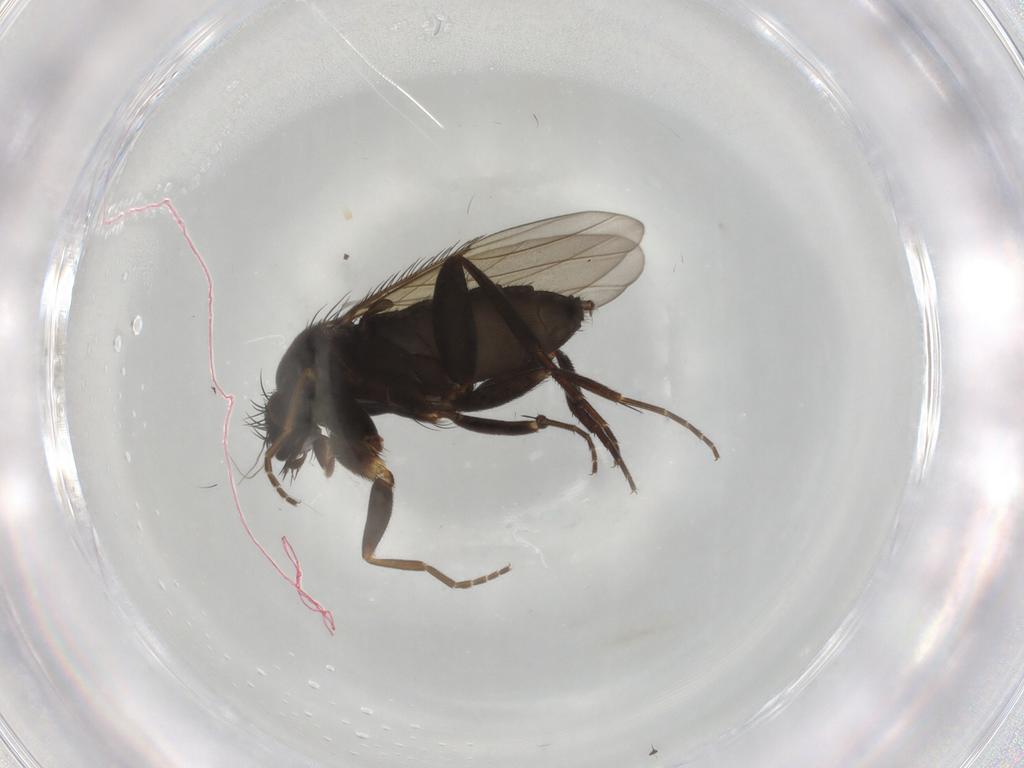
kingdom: Animalia
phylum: Arthropoda
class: Insecta
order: Diptera
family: Phoridae
